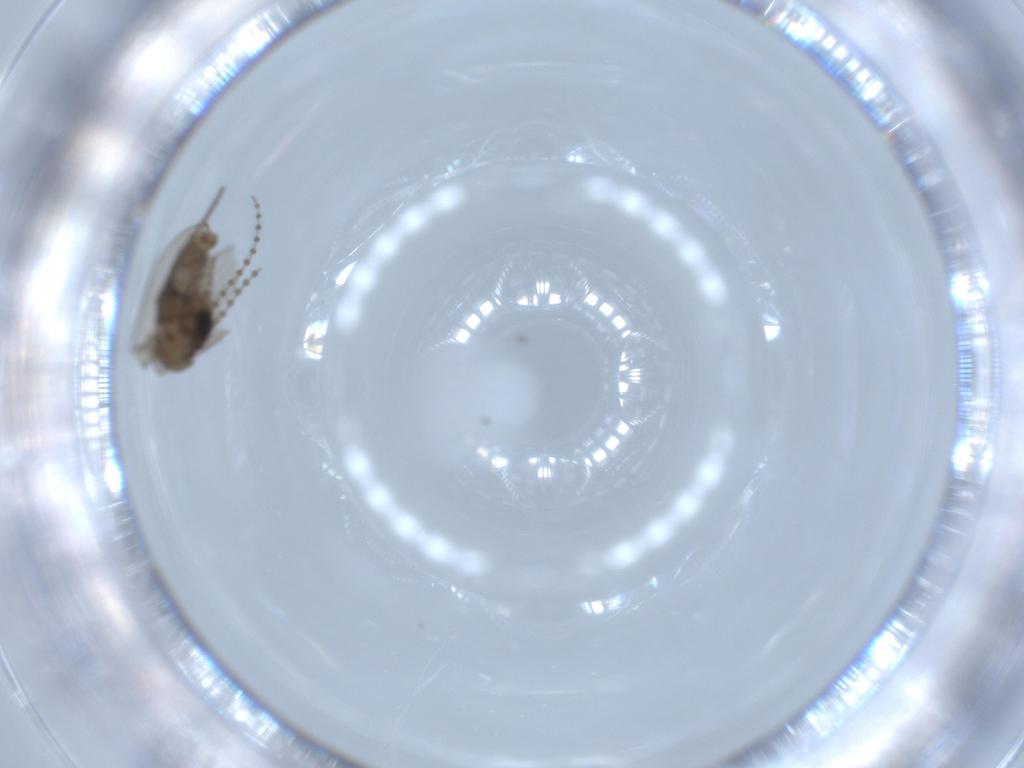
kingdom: Animalia
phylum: Arthropoda
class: Insecta
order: Diptera
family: Psychodidae
